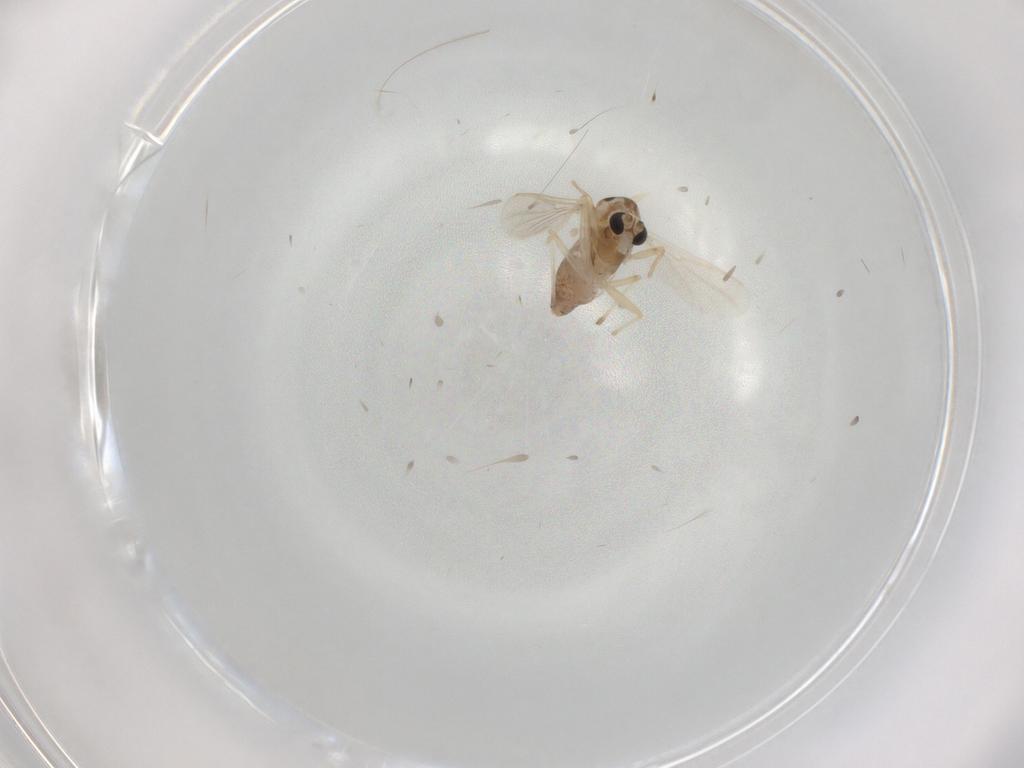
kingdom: Animalia
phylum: Arthropoda
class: Insecta
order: Diptera
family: Chironomidae
